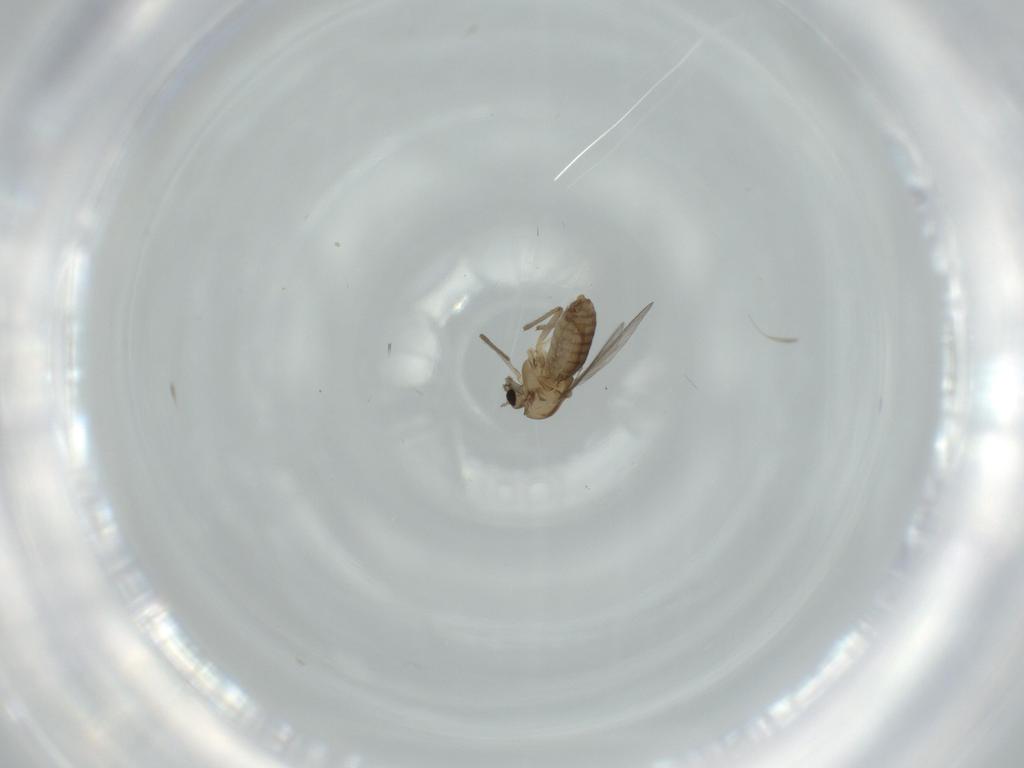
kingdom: Animalia
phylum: Arthropoda
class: Insecta
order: Diptera
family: Chironomidae
